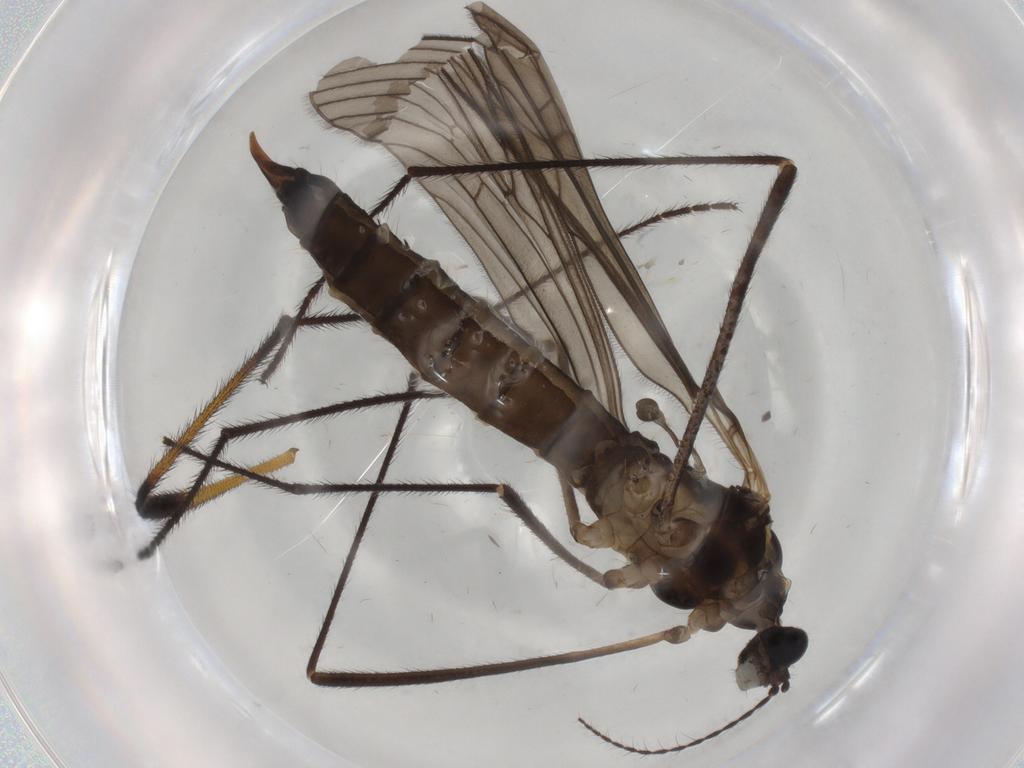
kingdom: Animalia
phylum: Arthropoda
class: Insecta
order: Diptera
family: Limoniidae
